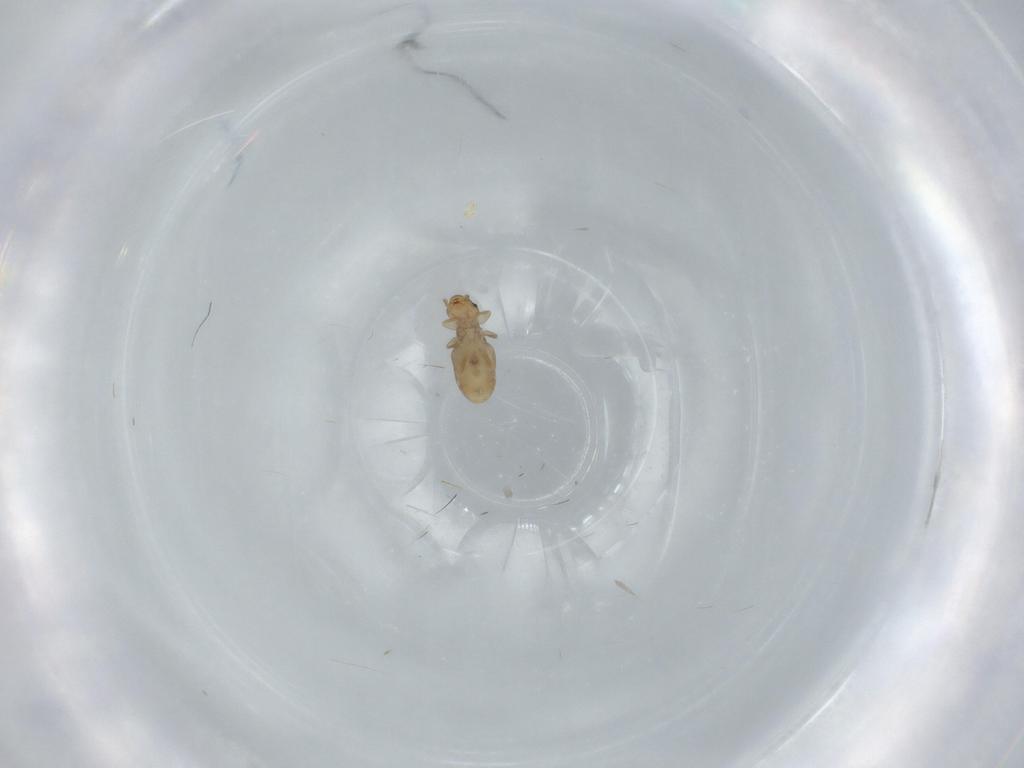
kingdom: Animalia
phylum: Arthropoda
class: Insecta
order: Psocodea
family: Liposcelididae
